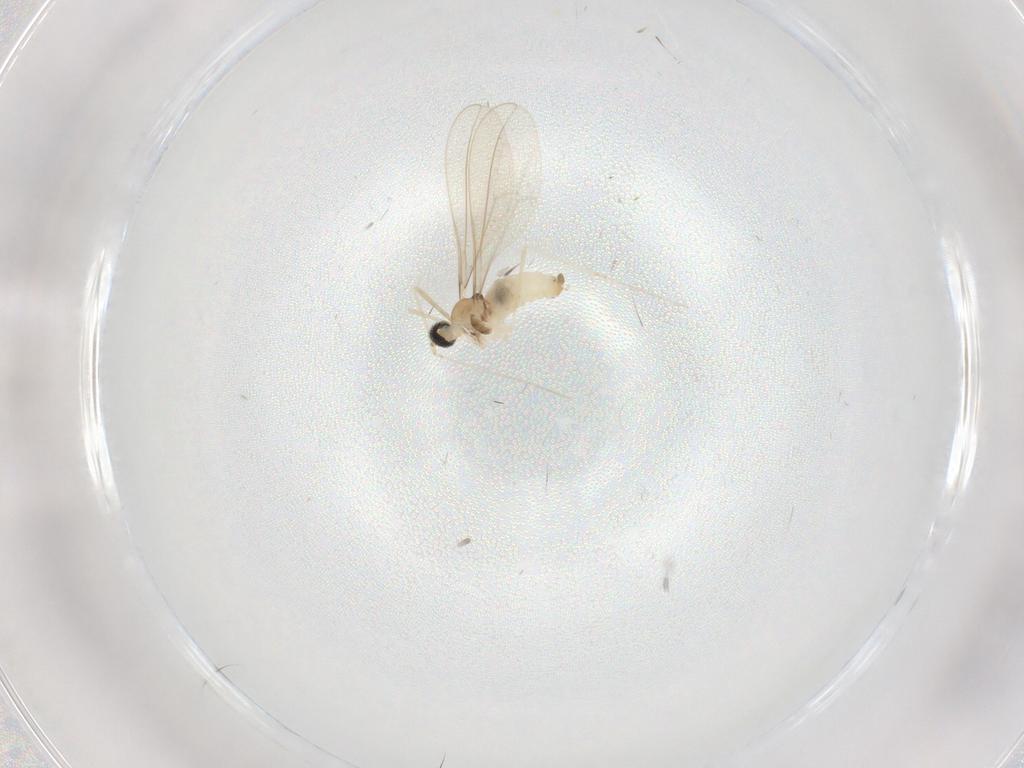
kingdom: Animalia
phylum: Arthropoda
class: Insecta
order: Diptera
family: Cecidomyiidae
